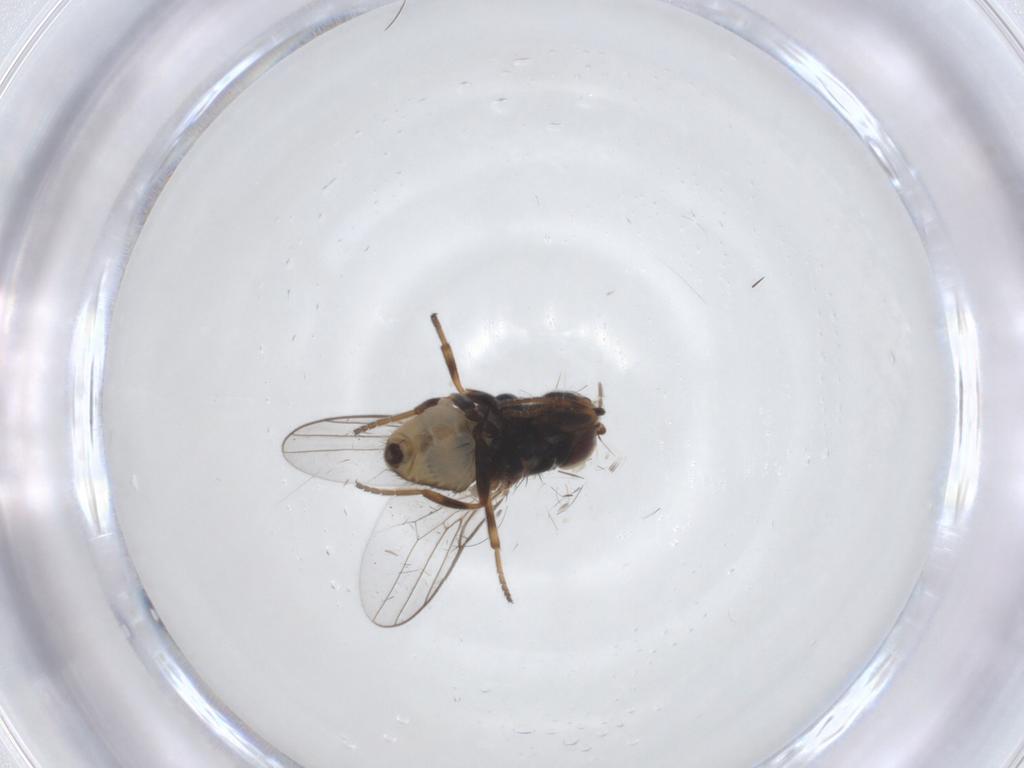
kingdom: Animalia
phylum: Arthropoda
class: Insecta
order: Diptera
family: Chloropidae
